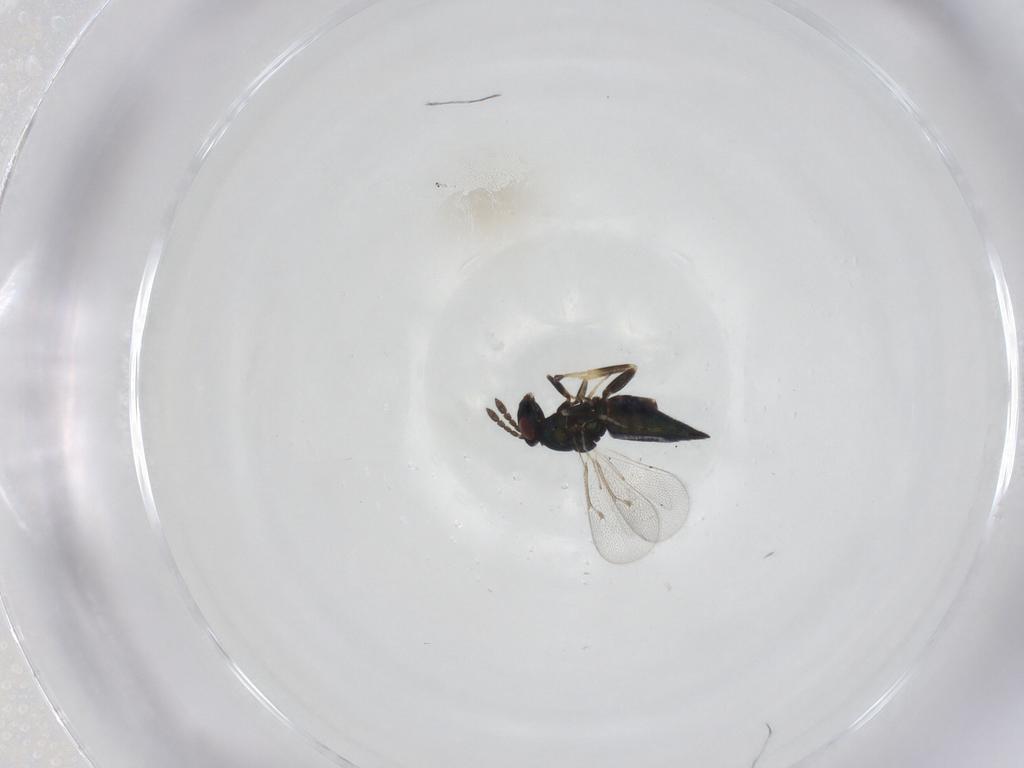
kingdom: Animalia
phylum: Arthropoda
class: Insecta
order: Hymenoptera
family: Eulophidae
